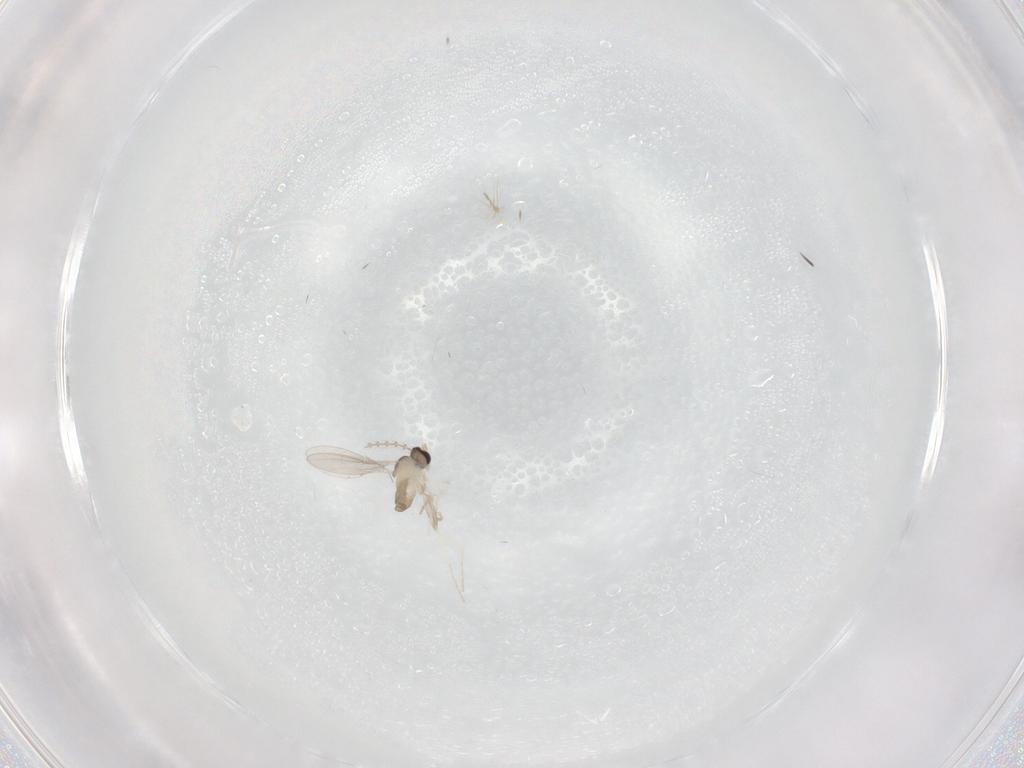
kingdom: Animalia
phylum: Arthropoda
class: Insecta
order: Diptera
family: Cecidomyiidae
